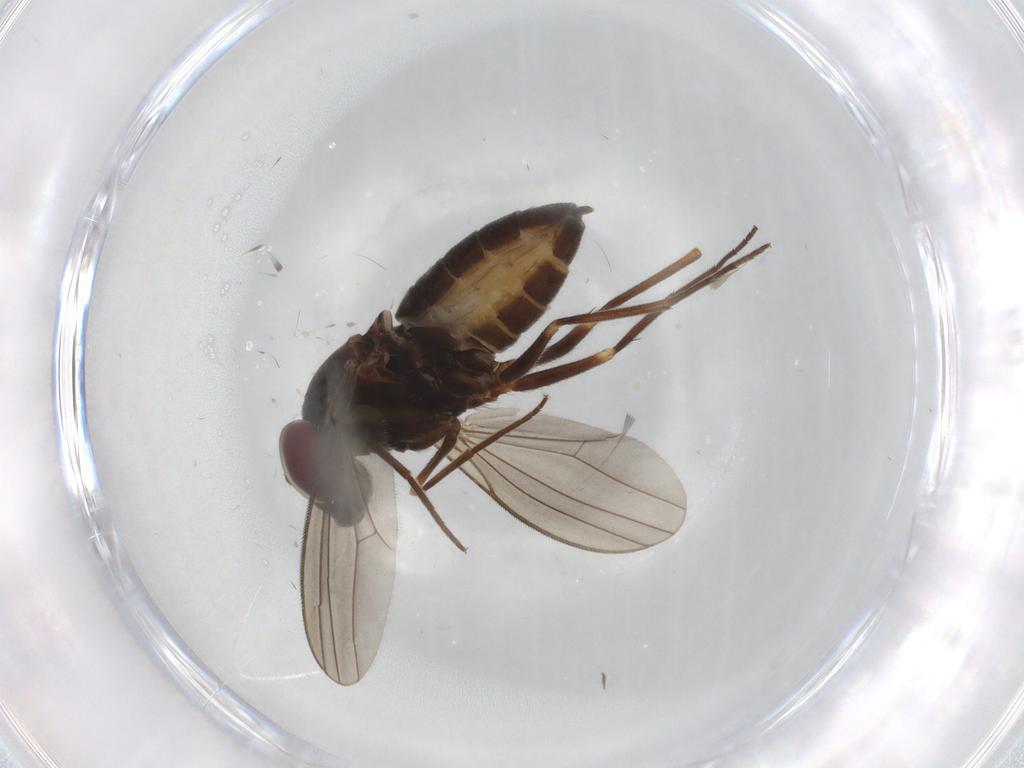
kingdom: Animalia
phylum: Arthropoda
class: Insecta
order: Diptera
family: Dolichopodidae
